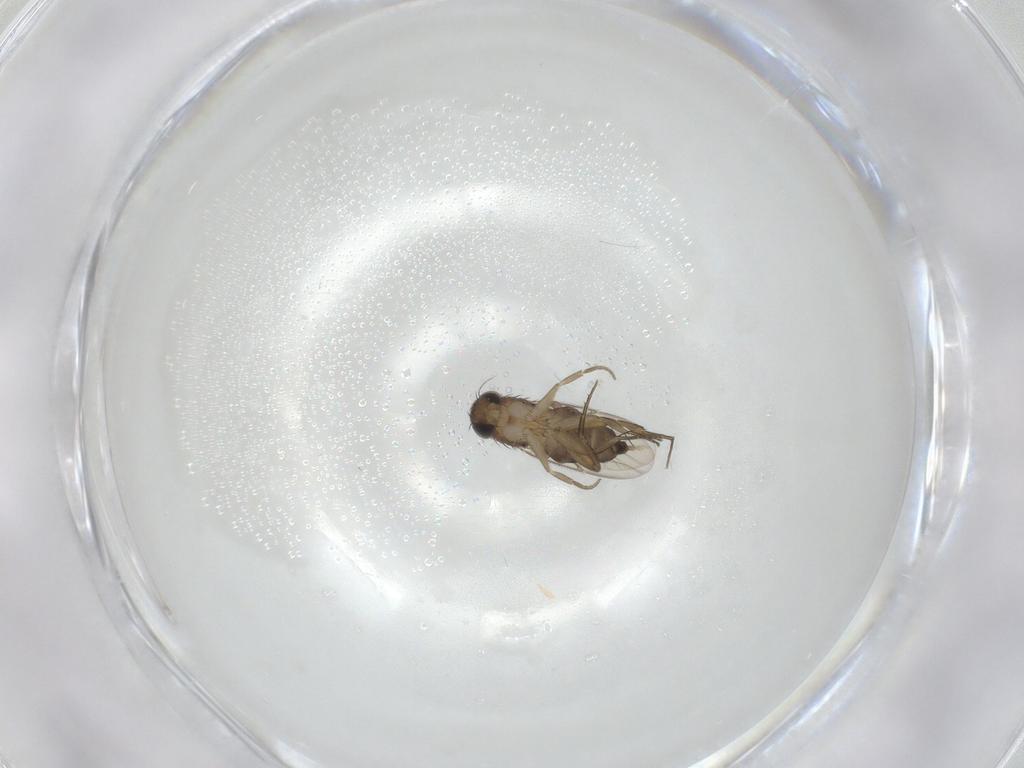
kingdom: Animalia
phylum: Arthropoda
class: Insecta
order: Diptera
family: Phoridae
